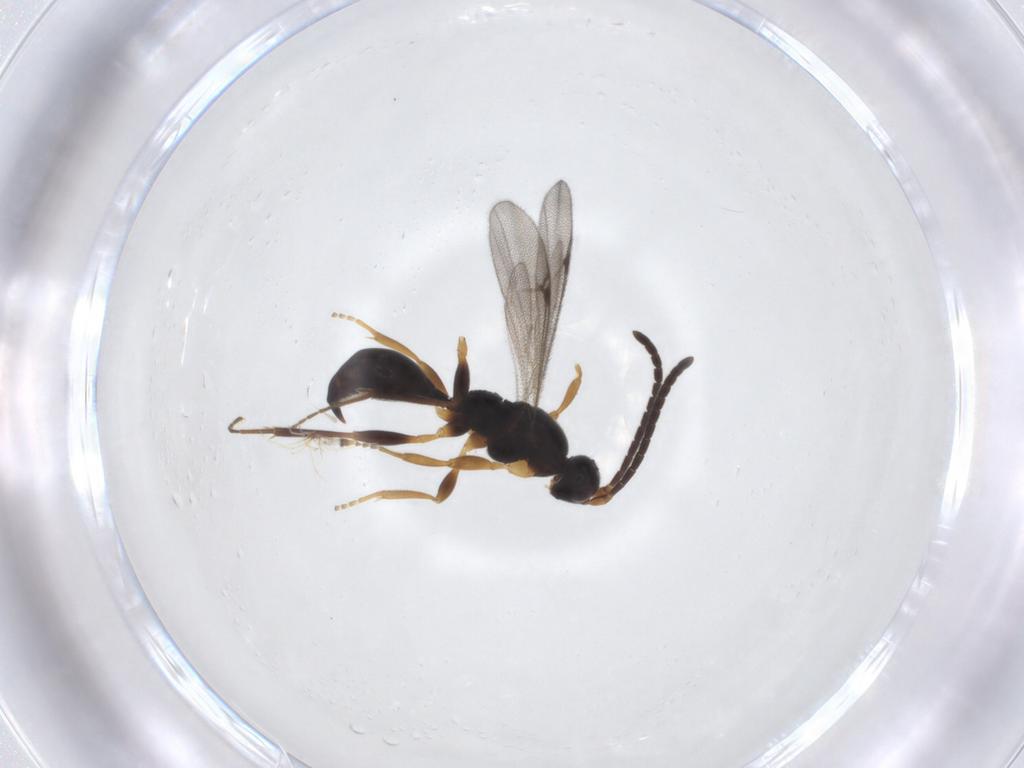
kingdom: Animalia
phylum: Arthropoda
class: Insecta
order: Hymenoptera
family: Proctotrupidae
